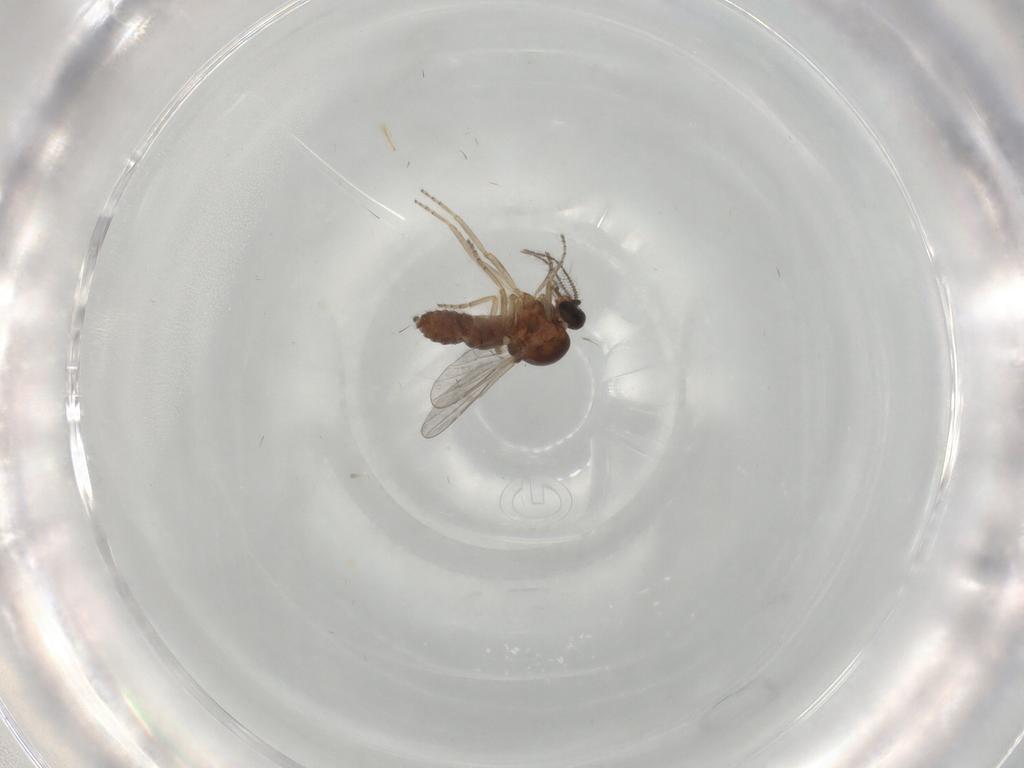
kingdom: Animalia
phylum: Arthropoda
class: Insecta
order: Diptera
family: Ceratopogonidae
